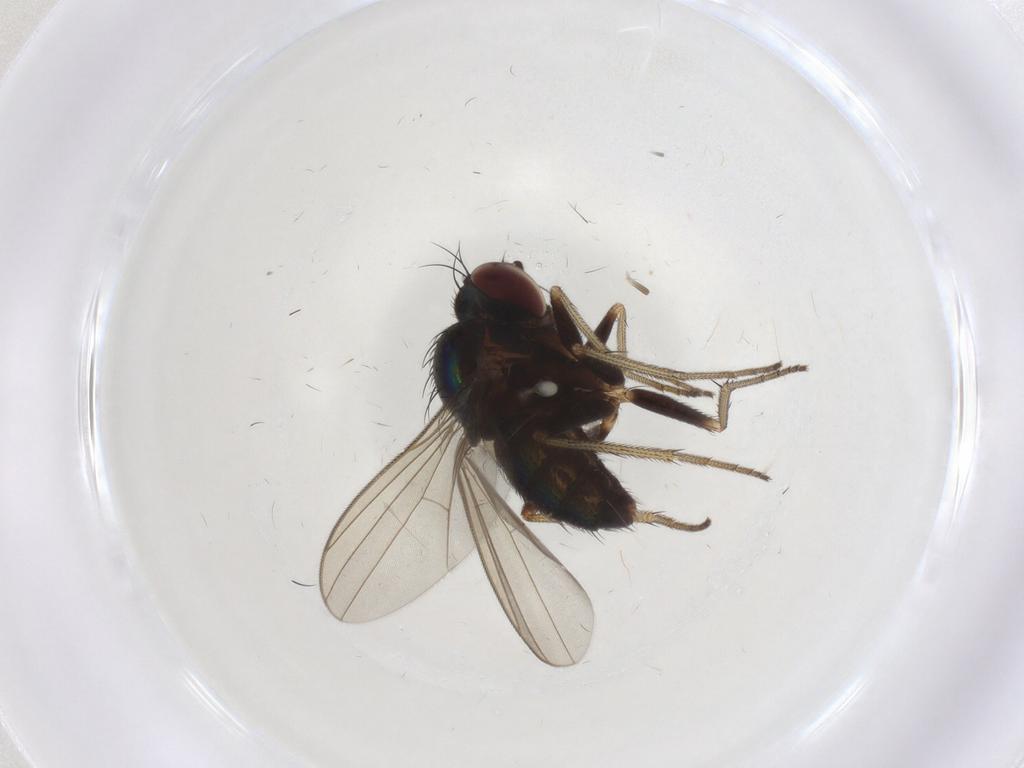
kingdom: Animalia
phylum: Arthropoda
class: Insecta
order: Diptera
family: Dolichopodidae
